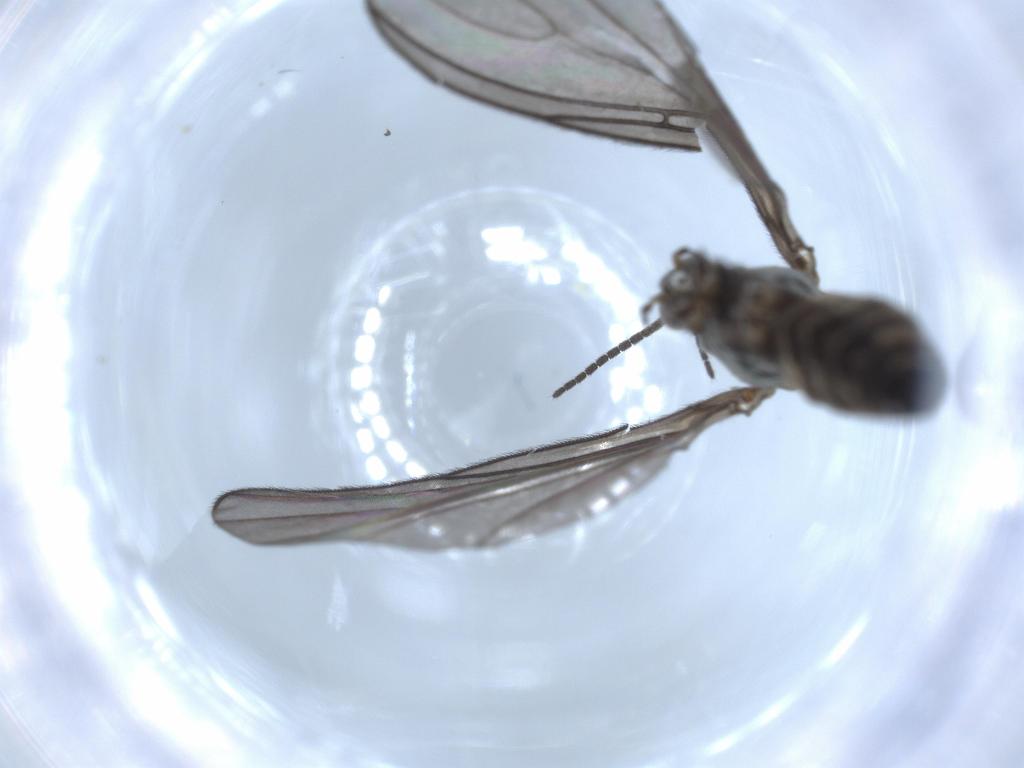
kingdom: Animalia
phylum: Arthropoda
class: Insecta
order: Diptera
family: Sciaridae
